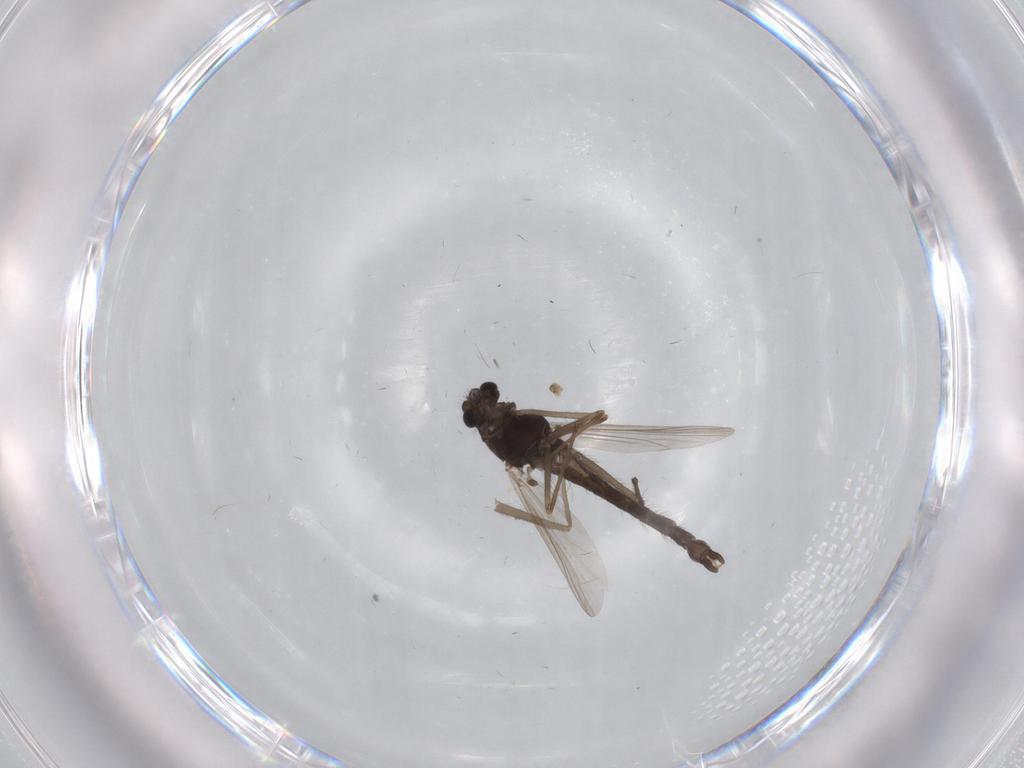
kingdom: Animalia
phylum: Arthropoda
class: Insecta
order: Diptera
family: Chironomidae
